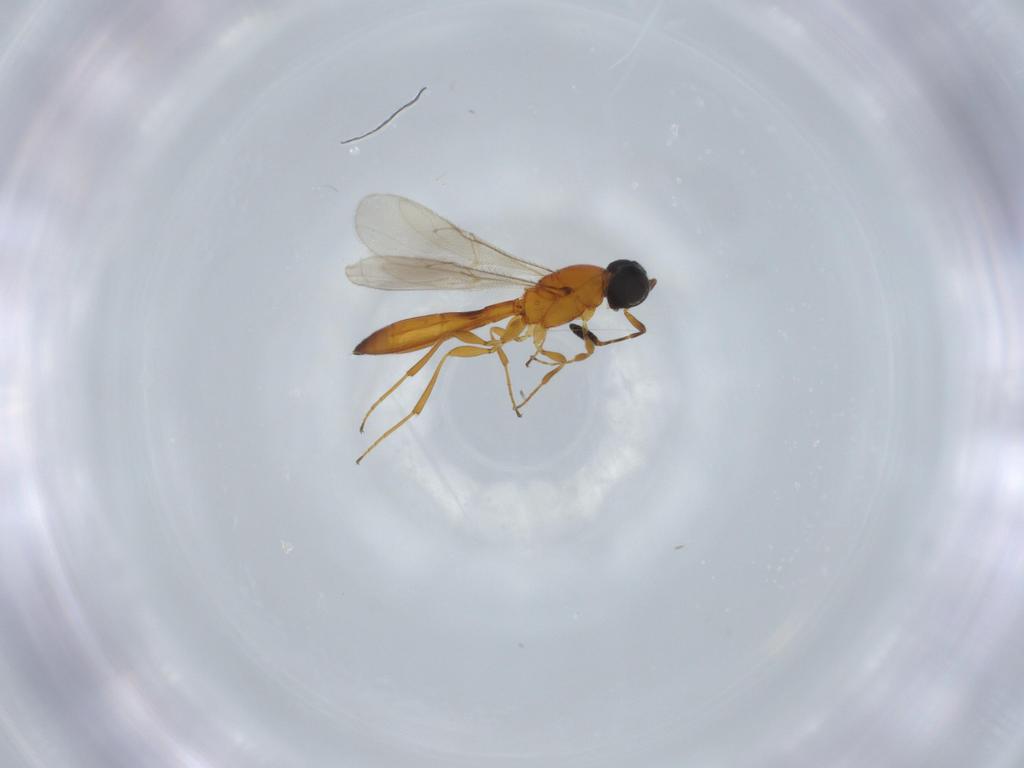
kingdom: Animalia
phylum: Arthropoda
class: Insecta
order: Hymenoptera
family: Scelionidae
